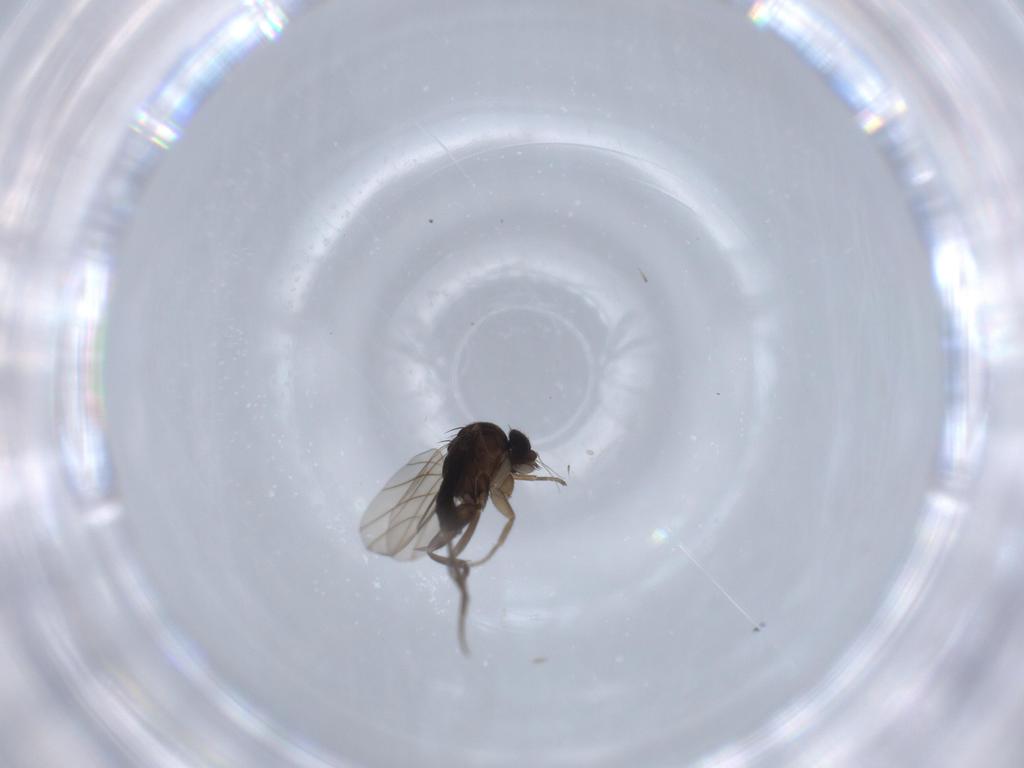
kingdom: Animalia
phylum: Arthropoda
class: Insecta
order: Diptera
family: Phoridae
